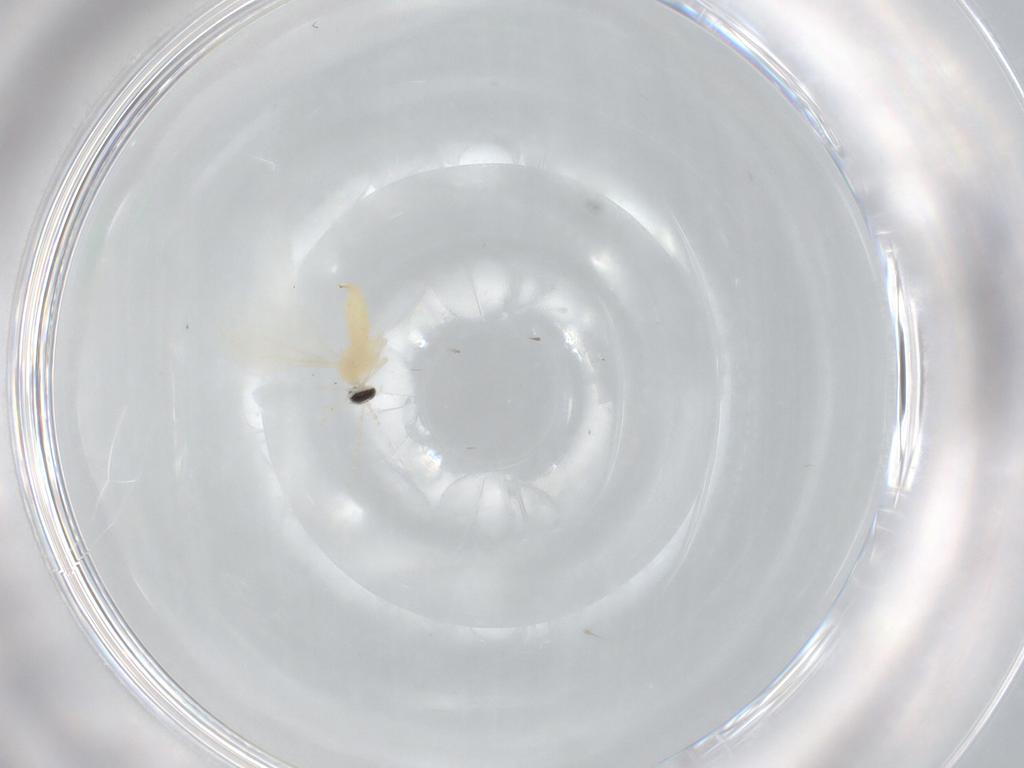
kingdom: Animalia
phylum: Arthropoda
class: Insecta
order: Diptera
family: Cecidomyiidae
